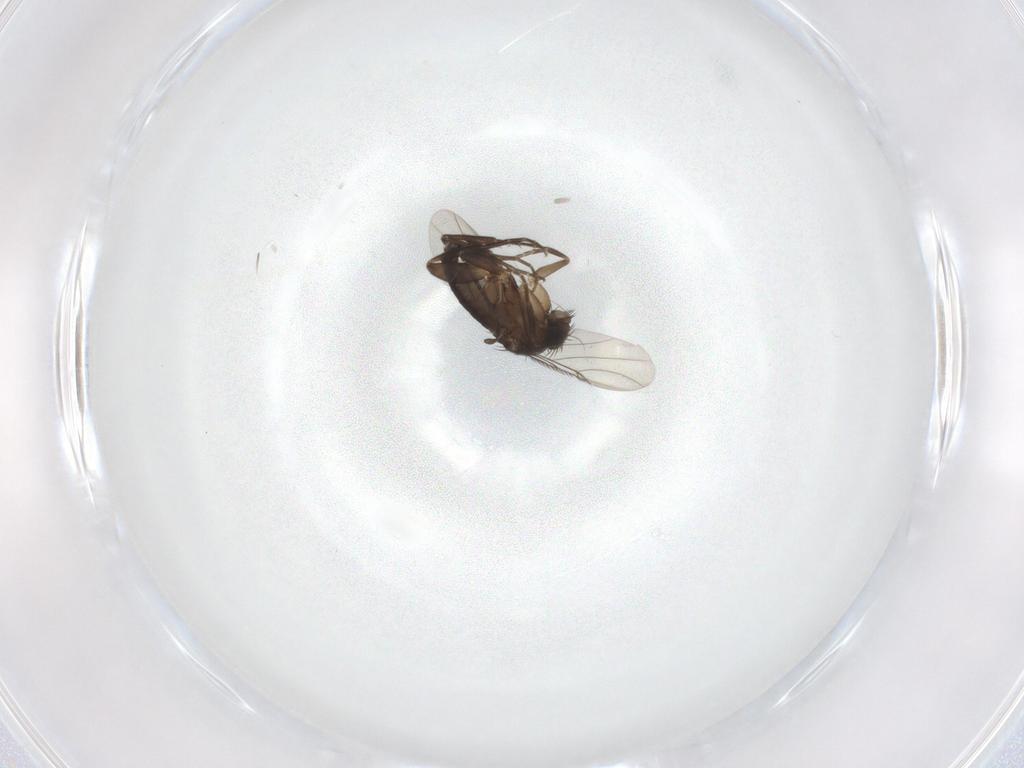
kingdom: Animalia
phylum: Arthropoda
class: Insecta
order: Diptera
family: Phoridae
